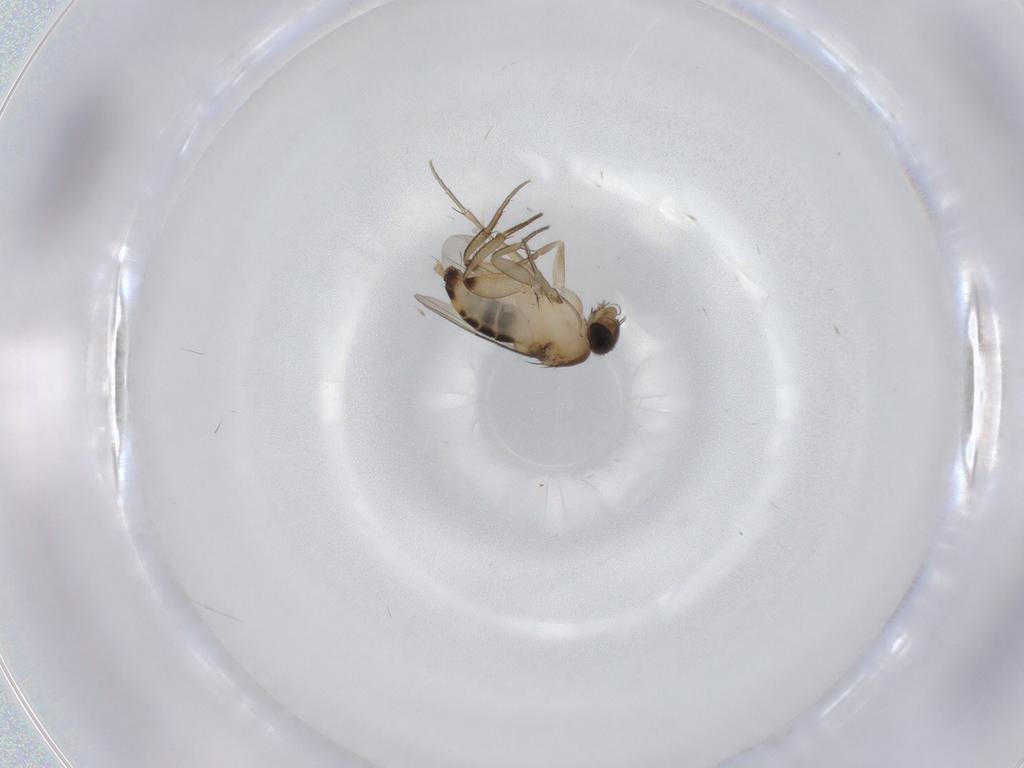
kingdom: Animalia
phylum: Arthropoda
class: Insecta
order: Diptera
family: Phoridae
